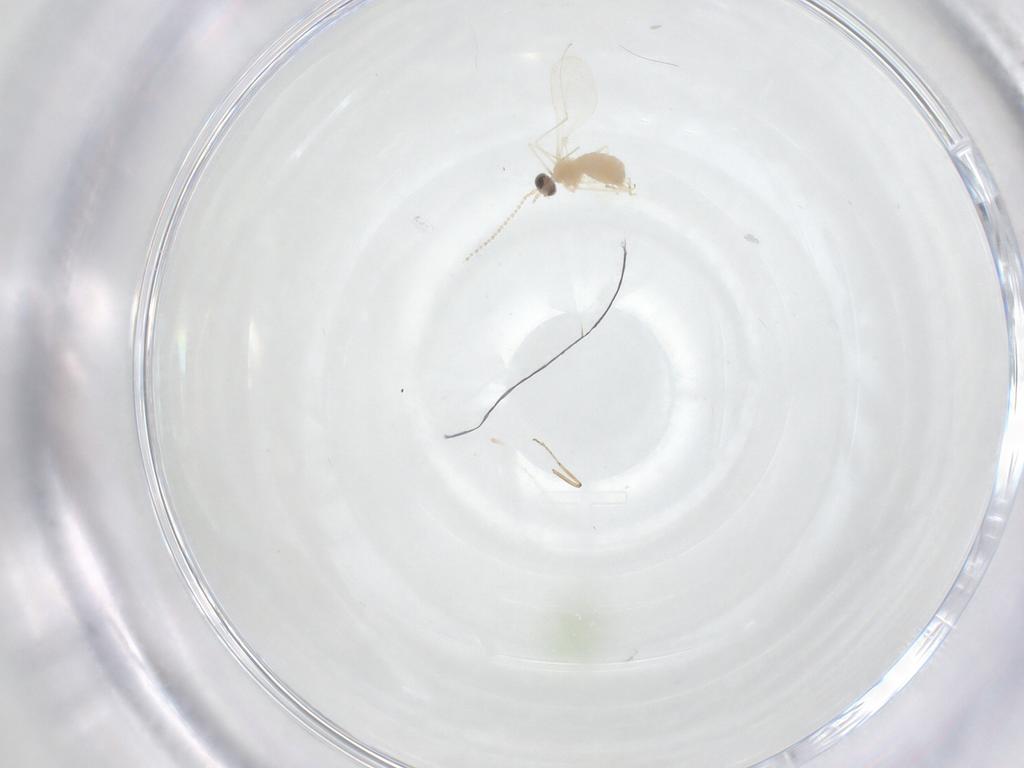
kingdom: Animalia
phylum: Arthropoda
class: Insecta
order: Diptera
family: Cecidomyiidae
